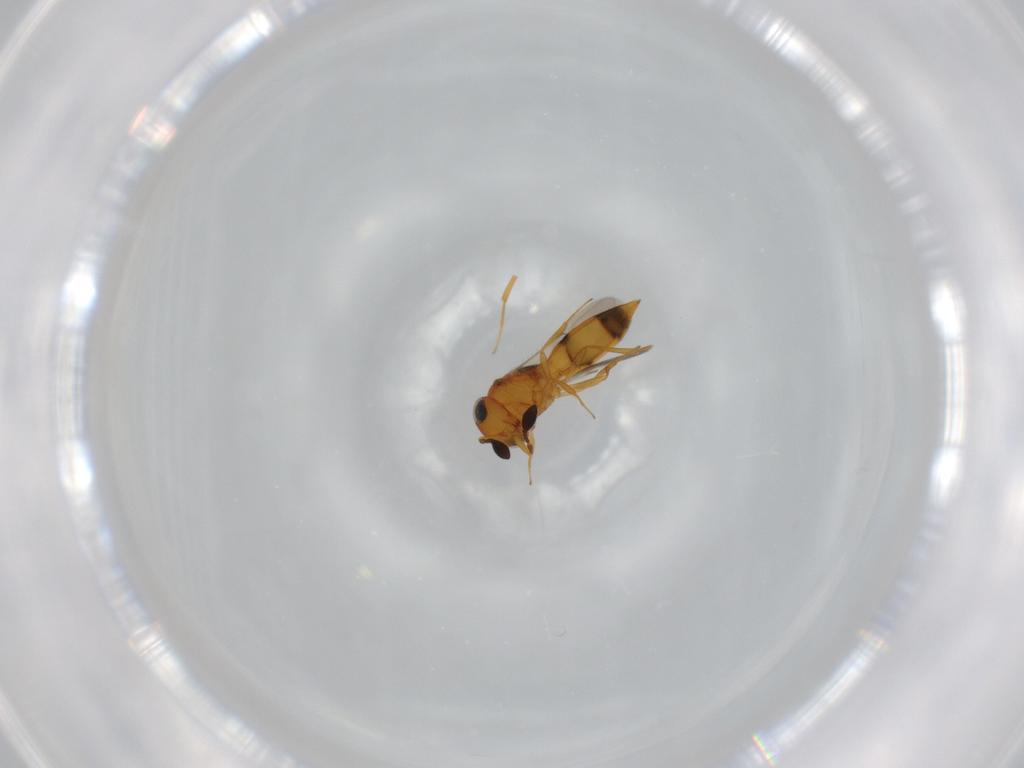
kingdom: Animalia
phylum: Arthropoda
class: Insecta
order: Hymenoptera
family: Scelionidae
